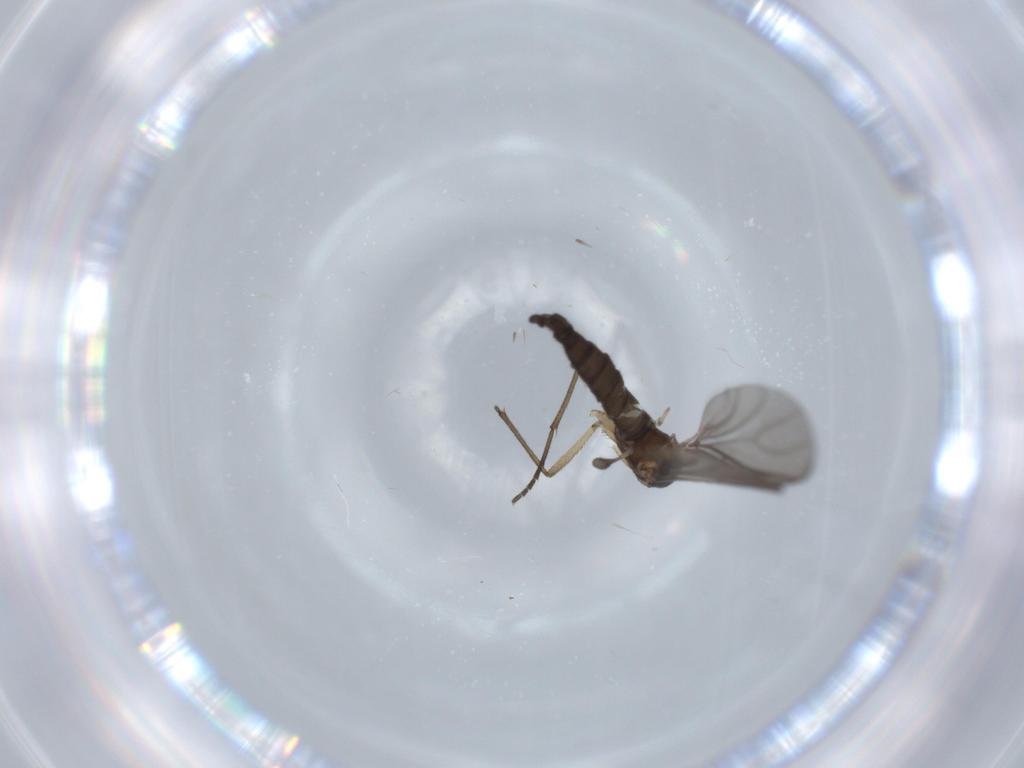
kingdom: Animalia
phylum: Arthropoda
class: Insecta
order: Diptera
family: Sciaridae
